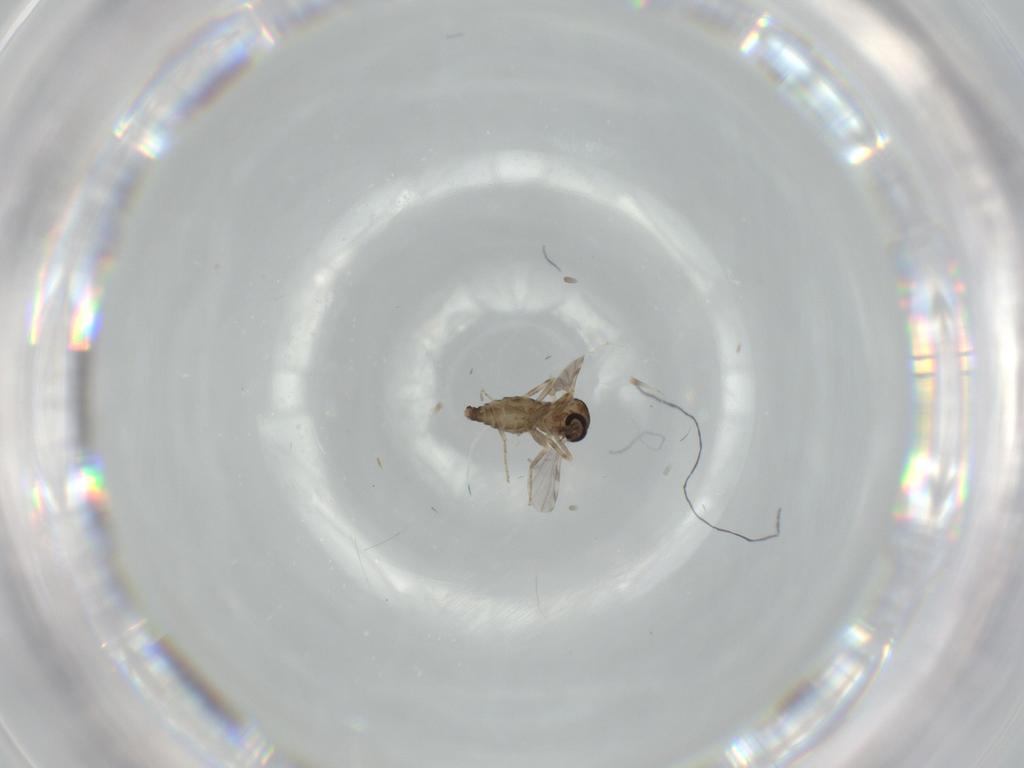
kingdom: Animalia
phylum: Arthropoda
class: Insecta
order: Diptera
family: Ceratopogonidae
